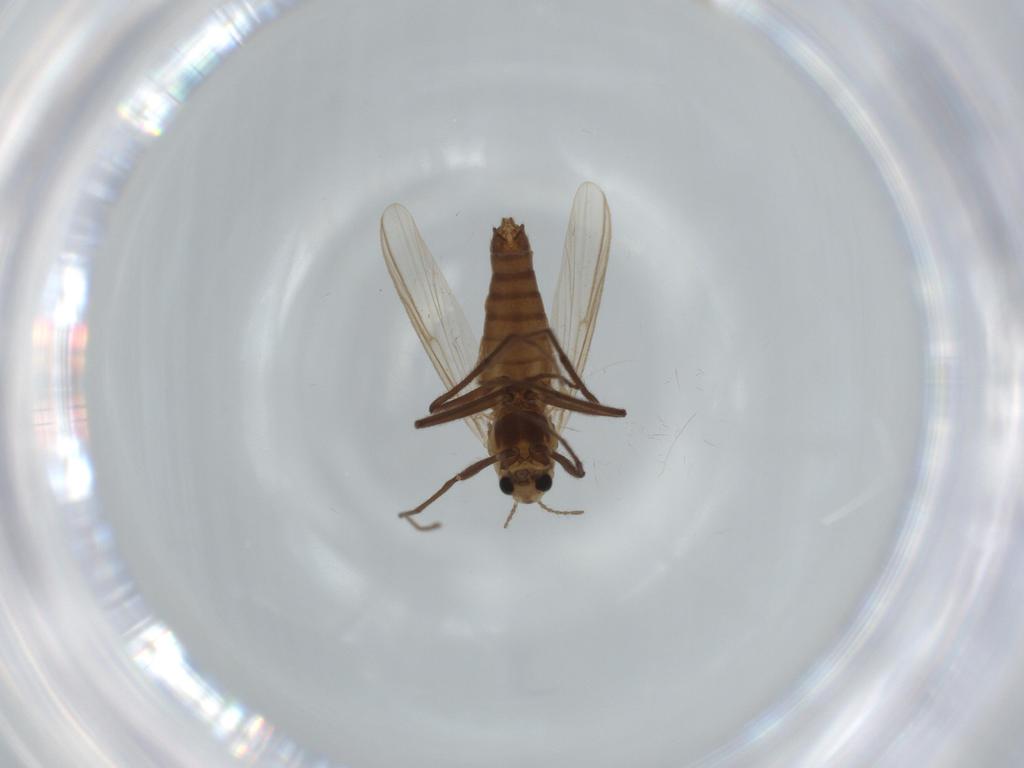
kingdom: Animalia
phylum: Arthropoda
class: Insecta
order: Diptera
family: Chironomidae
